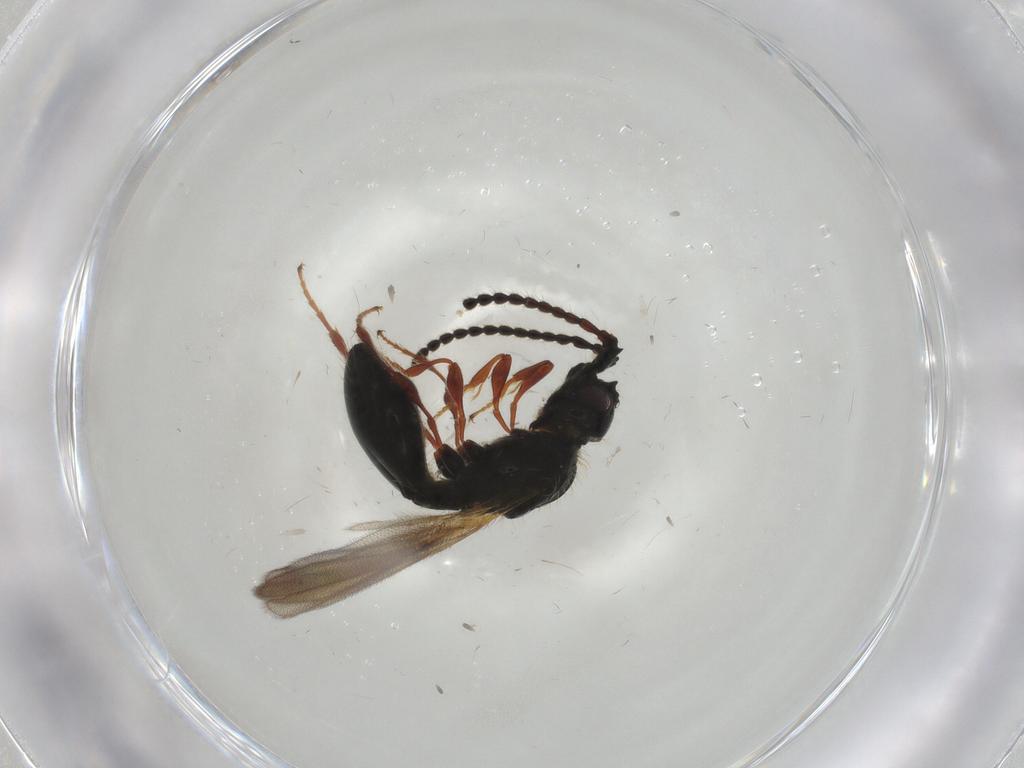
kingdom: Animalia
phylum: Arthropoda
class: Insecta
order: Hymenoptera
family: Diapriidae
